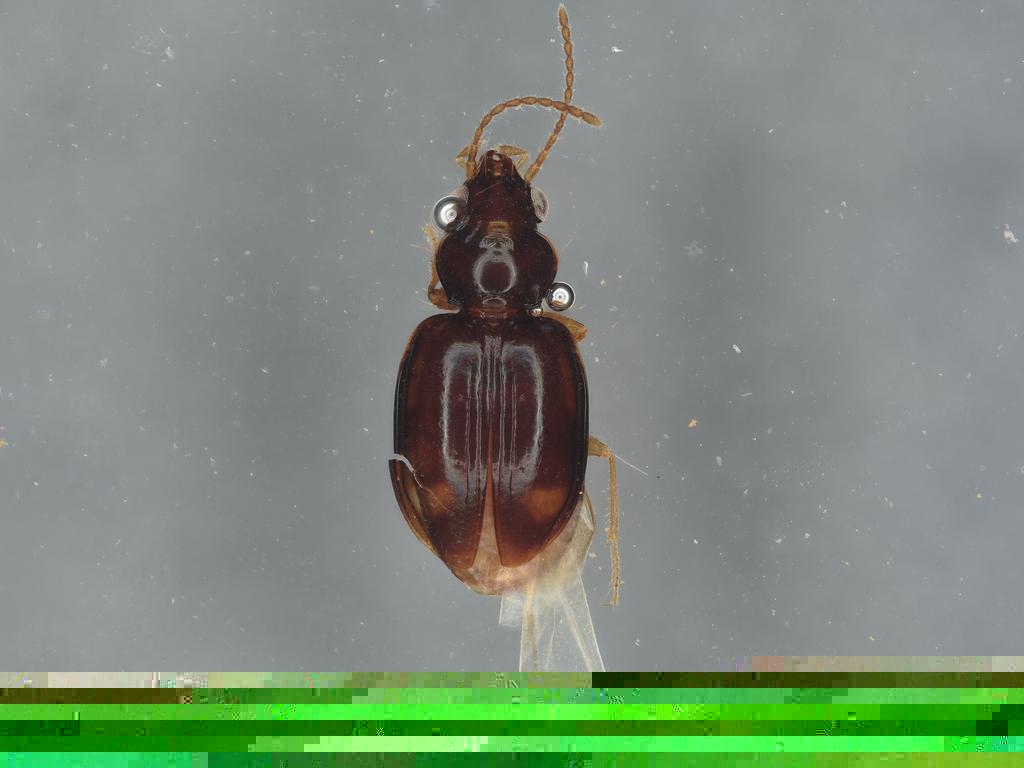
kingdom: Animalia
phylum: Arthropoda
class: Insecta
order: Coleoptera
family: Carabidae
